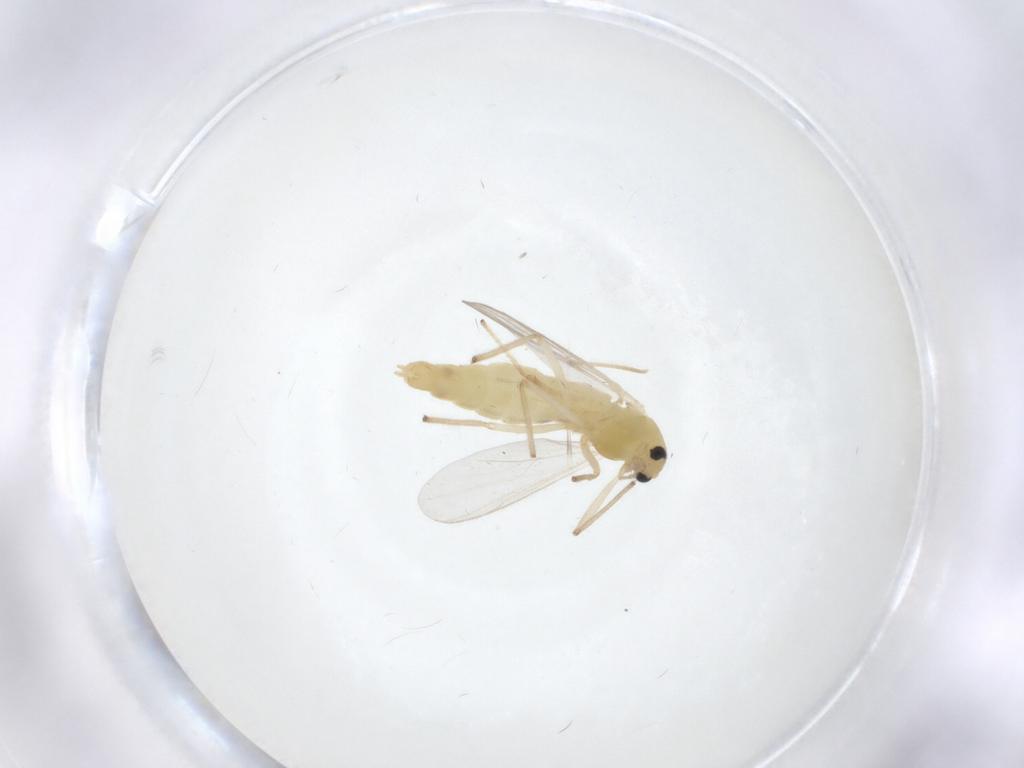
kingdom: Animalia
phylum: Arthropoda
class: Insecta
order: Diptera
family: Chironomidae
